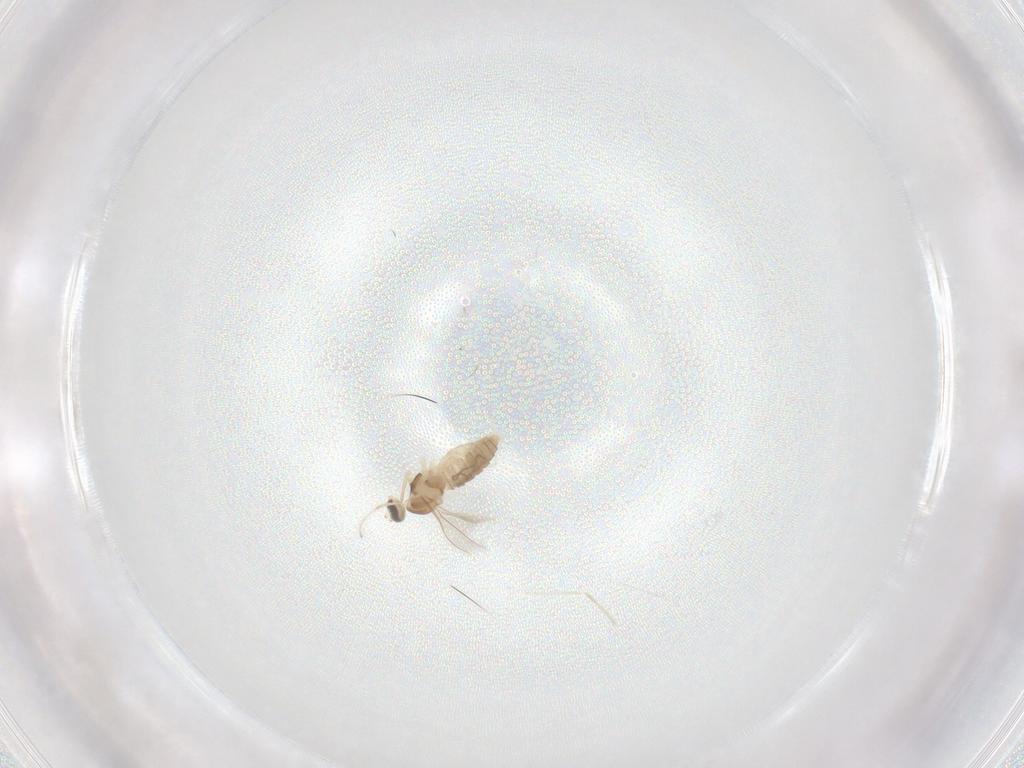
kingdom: Animalia
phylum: Arthropoda
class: Insecta
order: Diptera
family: Cecidomyiidae
